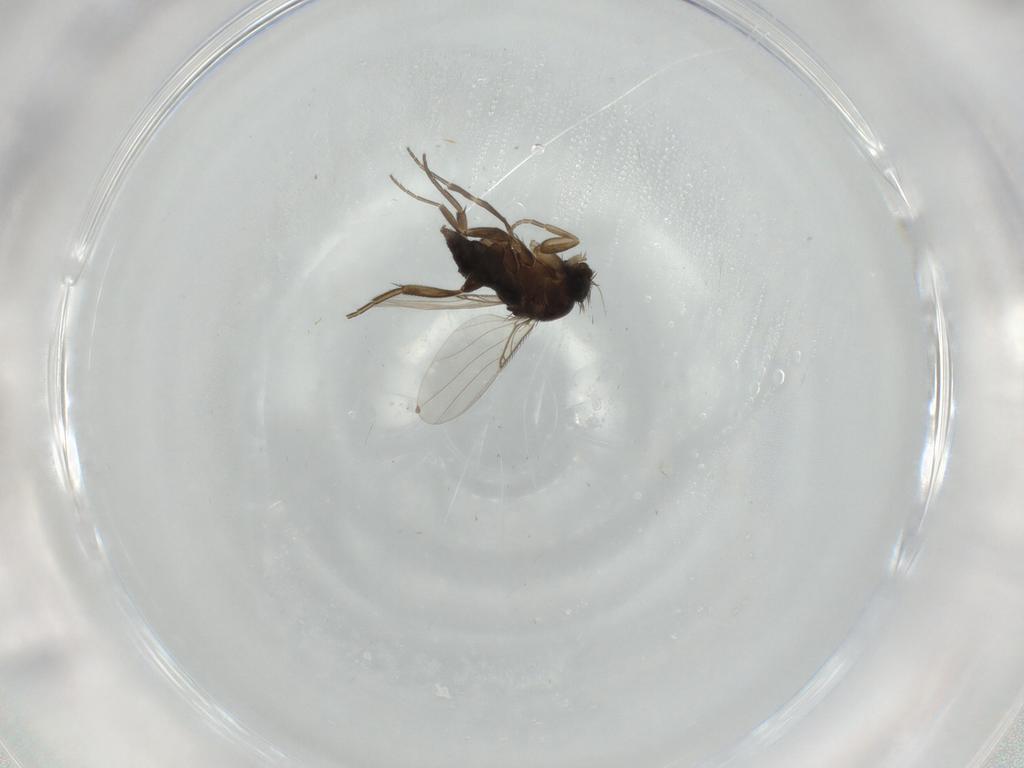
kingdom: Animalia
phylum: Arthropoda
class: Insecta
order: Diptera
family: Phoridae
